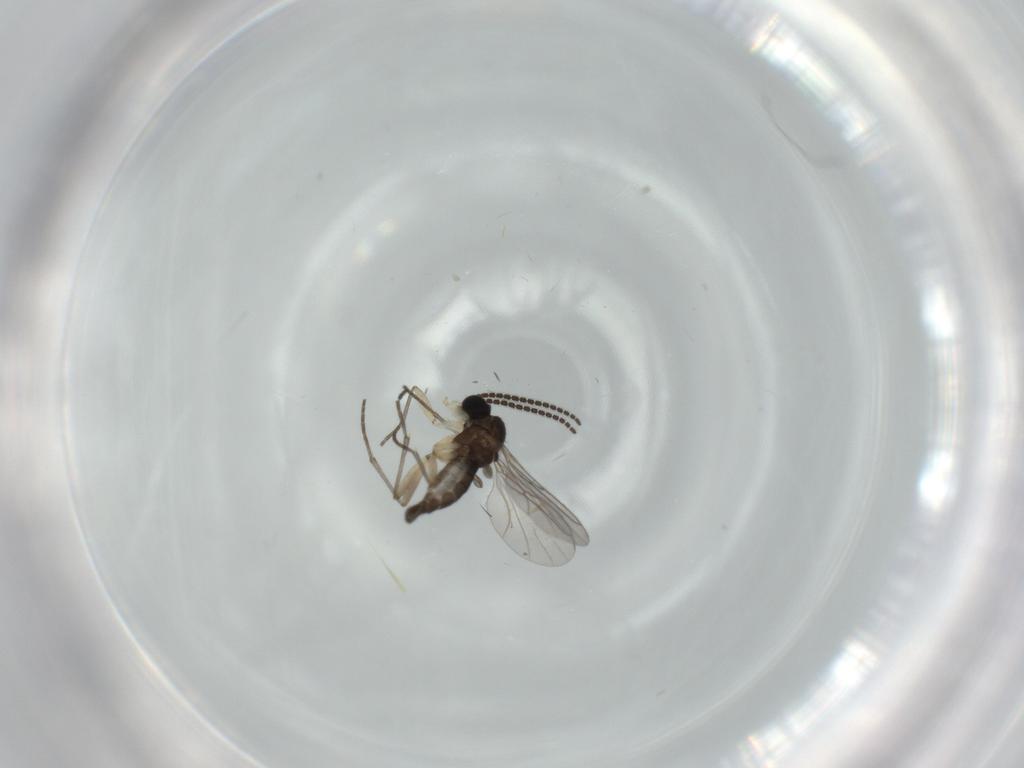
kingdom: Animalia
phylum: Arthropoda
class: Insecta
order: Diptera
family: Sciaridae
